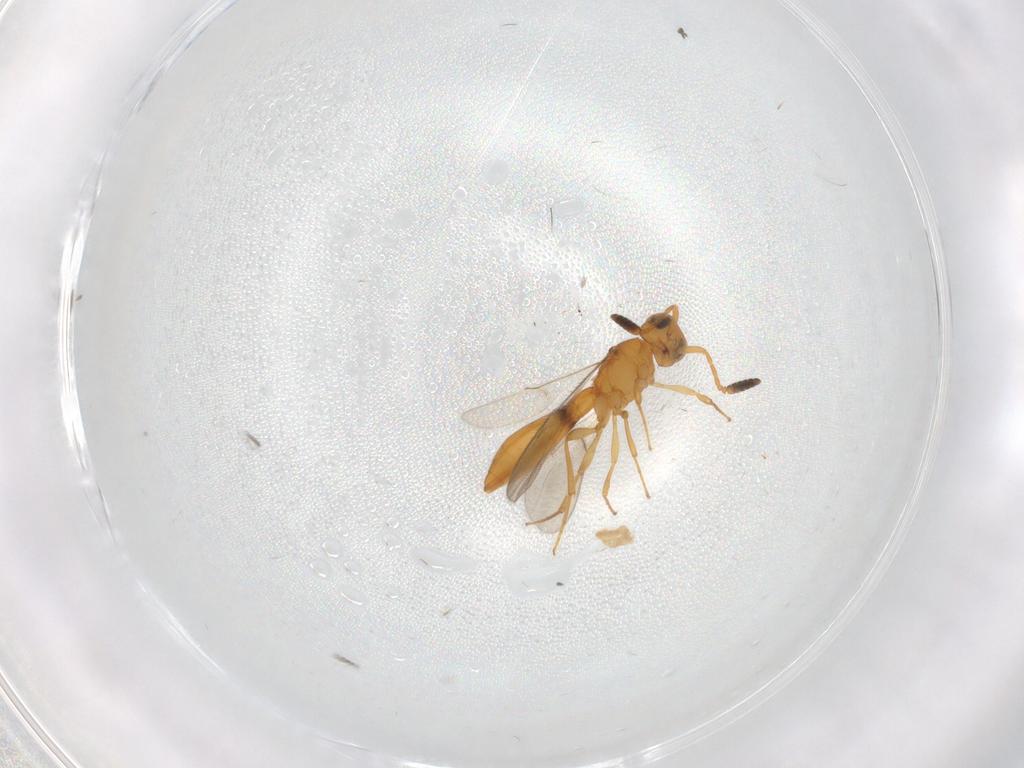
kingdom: Animalia
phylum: Arthropoda
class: Insecta
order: Hymenoptera
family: Scelionidae
